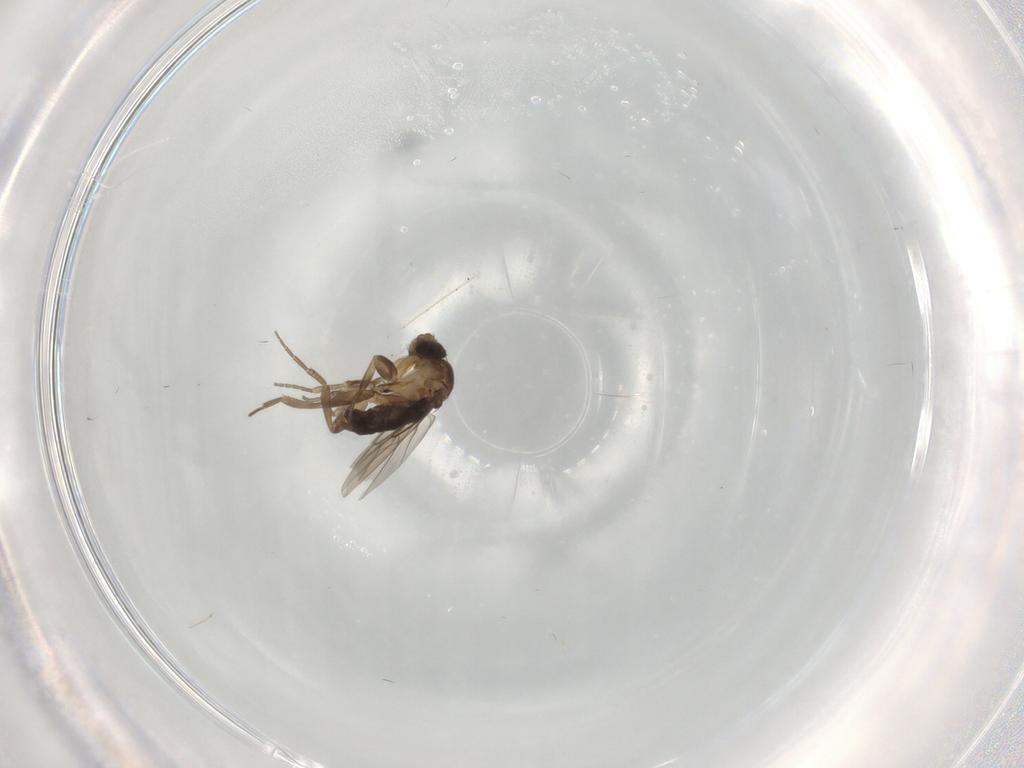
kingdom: Animalia
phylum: Arthropoda
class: Insecta
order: Diptera
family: Phoridae
